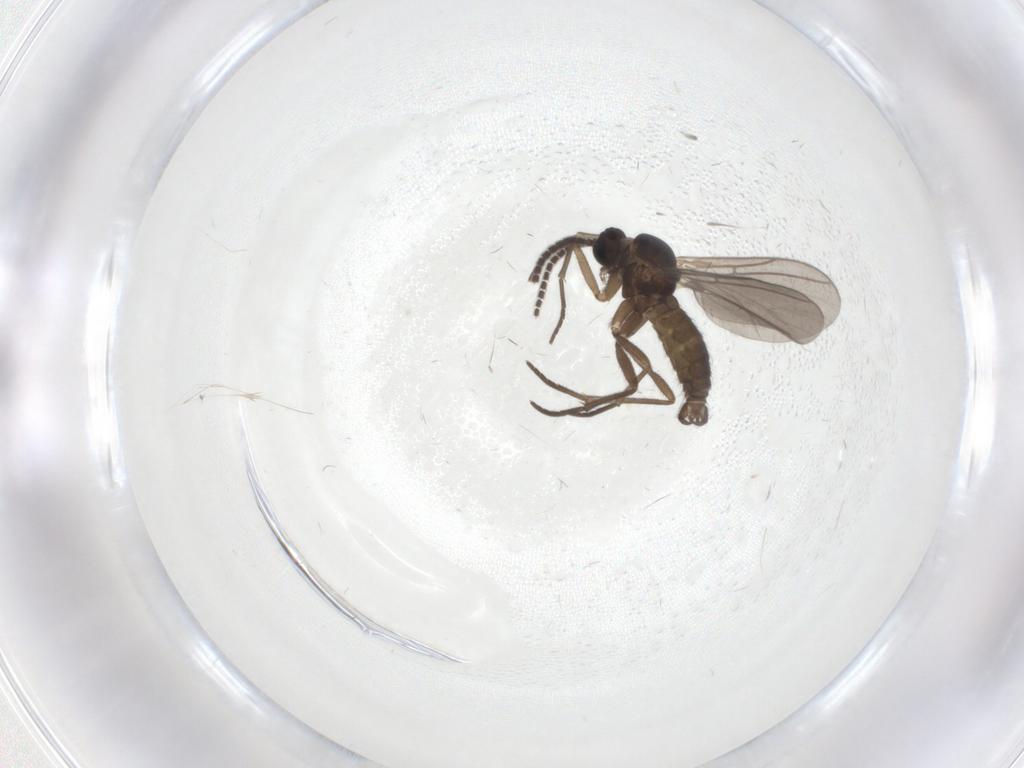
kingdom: Animalia
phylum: Arthropoda
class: Insecta
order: Diptera
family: Sciaridae
